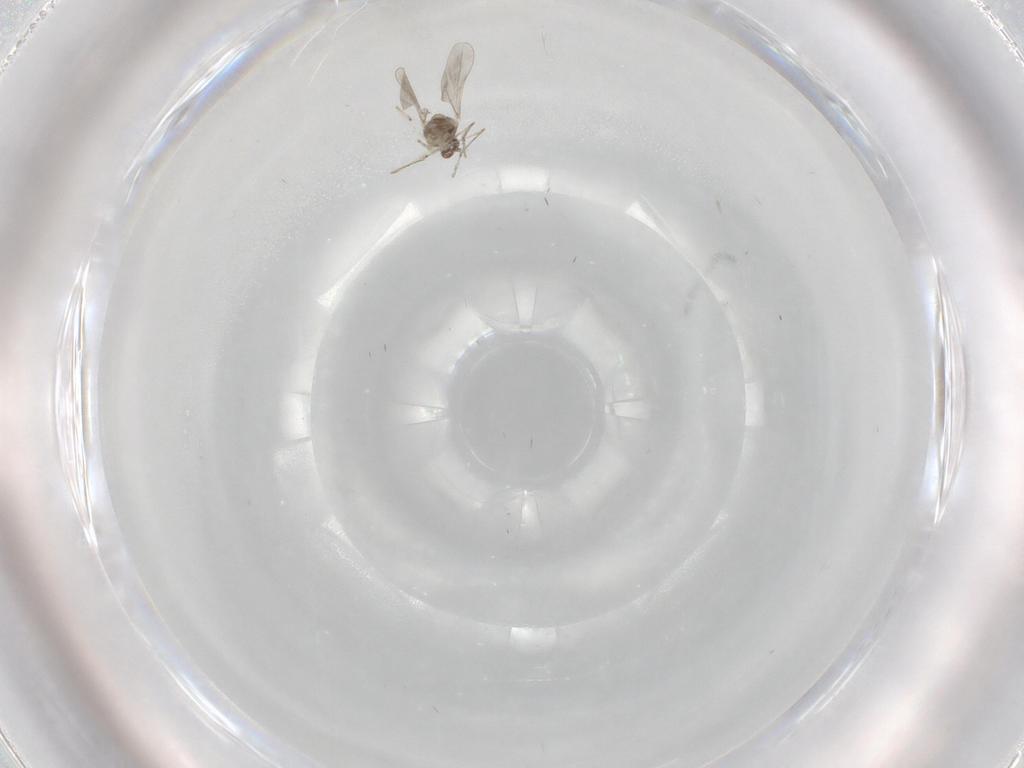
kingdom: Animalia
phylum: Arthropoda
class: Insecta
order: Diptera
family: Cecidomyiidae
